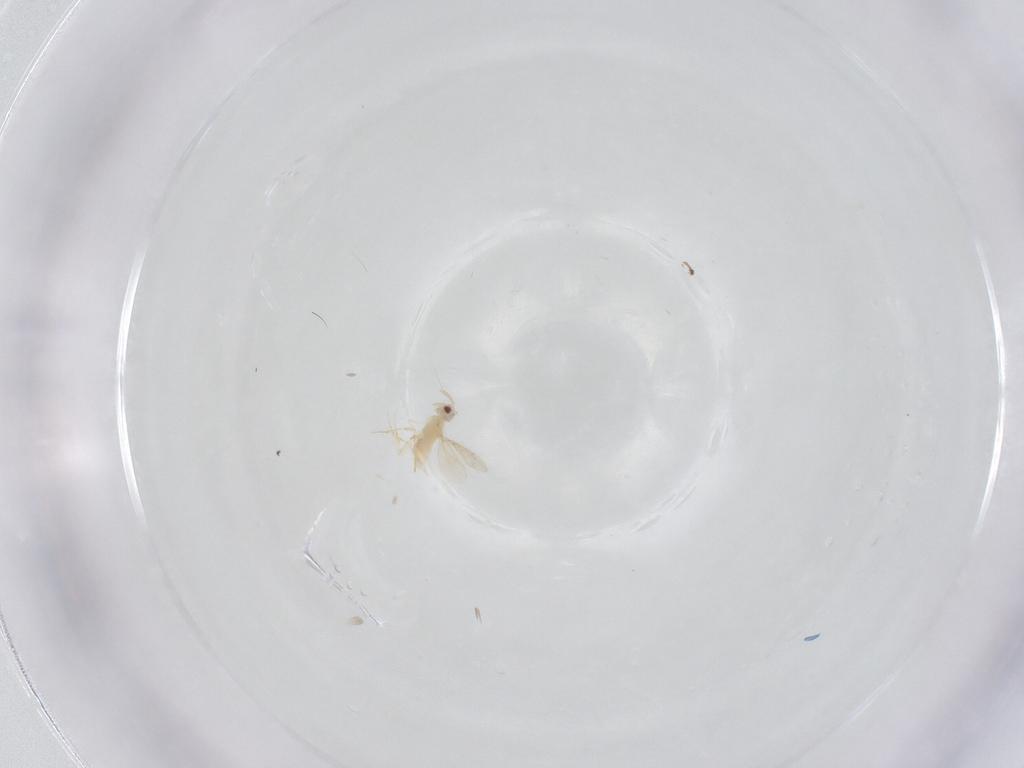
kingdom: Animalia
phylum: Arthropoda
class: Insecta
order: Hymenoptera
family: Aphelinidae
